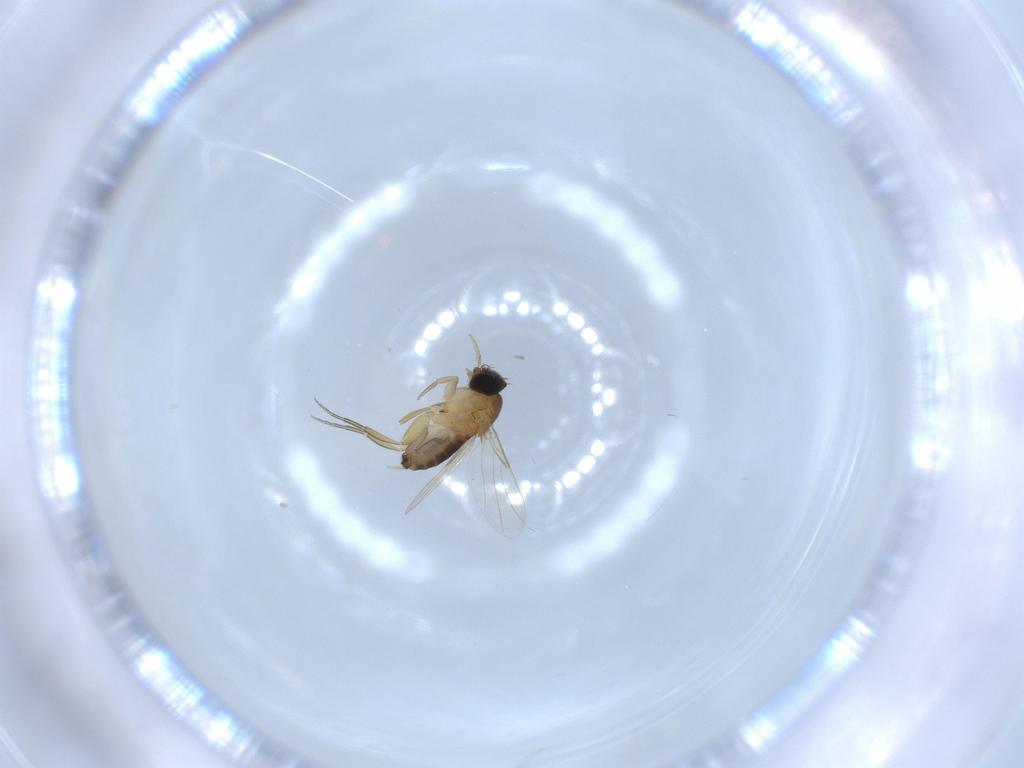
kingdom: Animalia
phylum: Arthropoda
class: Insecta
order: Diptera
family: Phoridae
